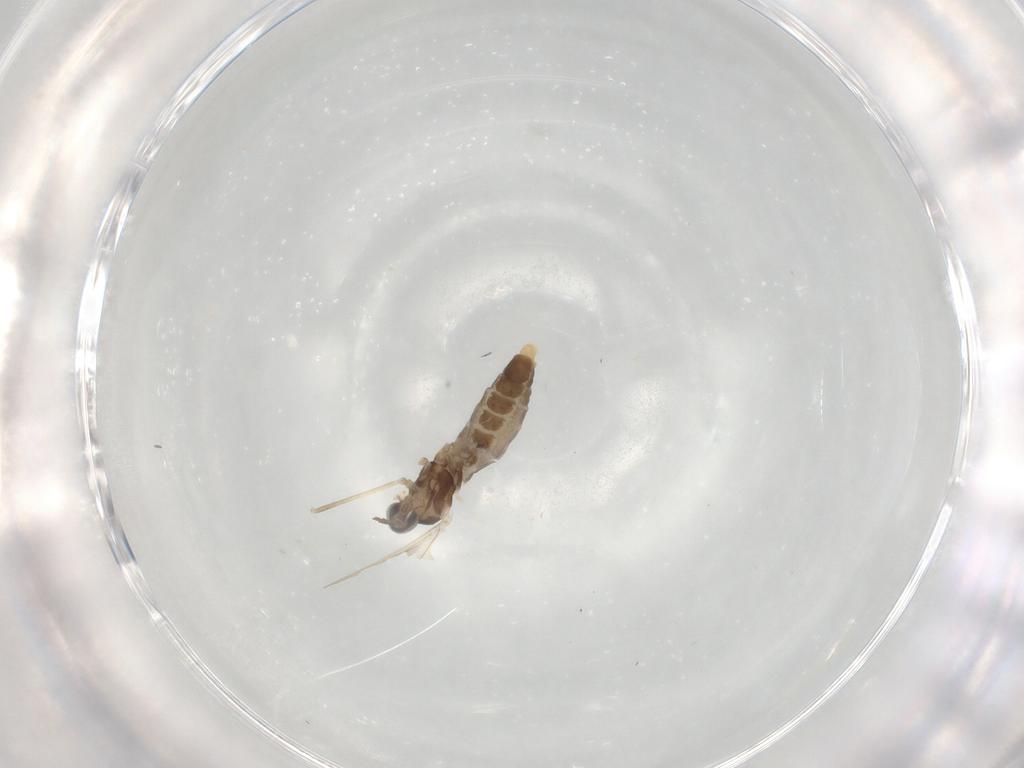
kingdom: Animalia
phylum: Arthropoda
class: Insecta
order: Diptera
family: Cecidomyiidae
